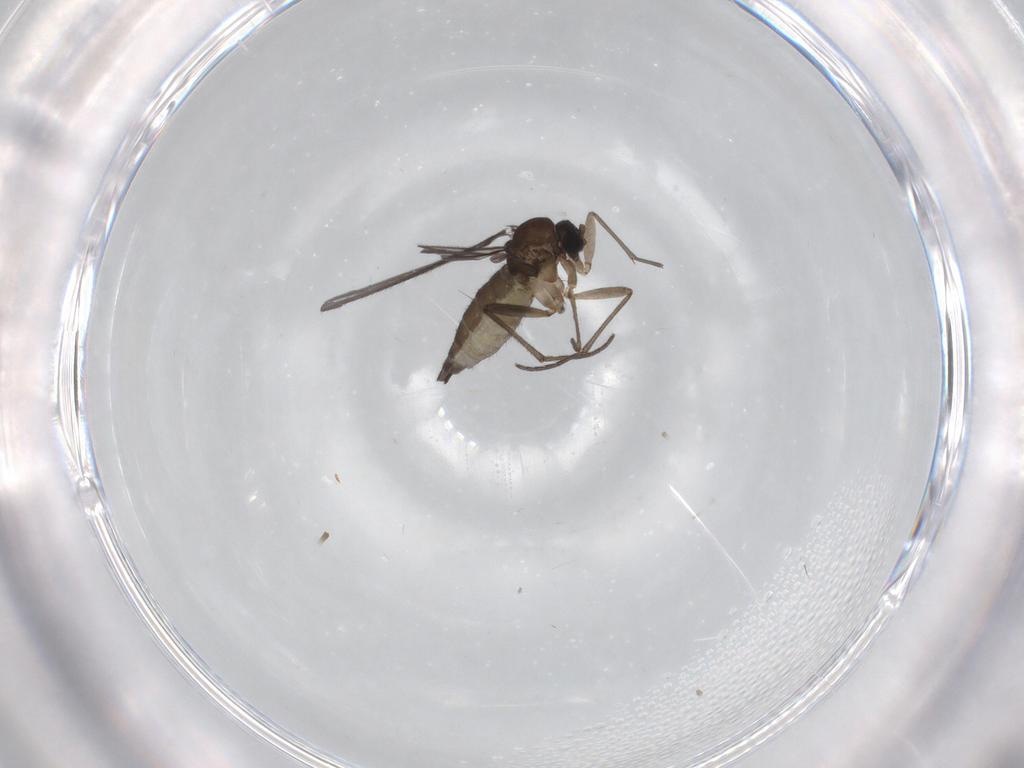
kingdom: Animalia
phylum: Arthropoda
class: Insecta
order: Diptera
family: Sciaridae
